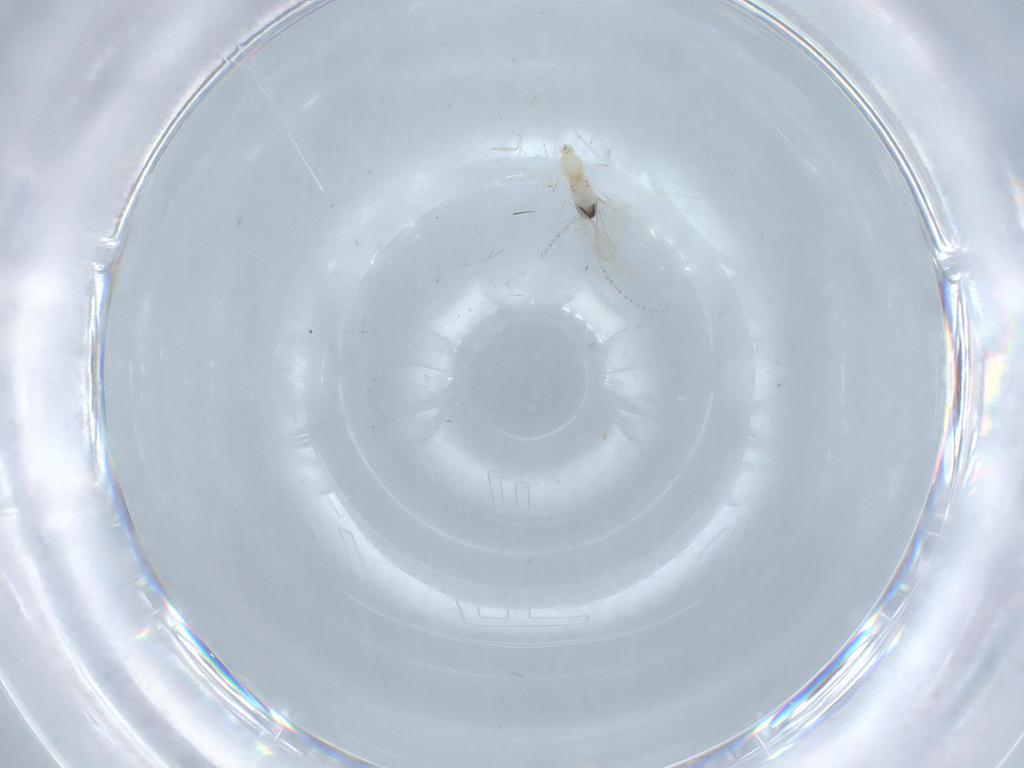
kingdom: Animalia
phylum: Arthropoda
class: Insecta
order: Diptera
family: Cecidomyiidae
